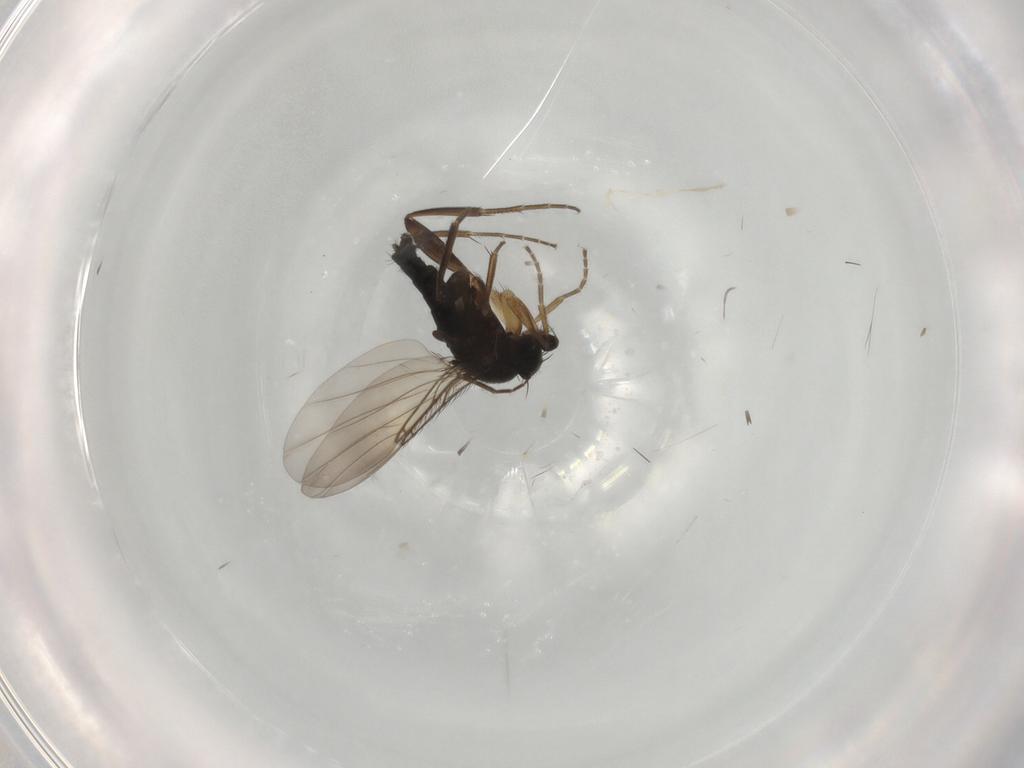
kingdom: Animalia
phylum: Arthropoda
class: Insecta
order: Diptera
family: Phoridae
